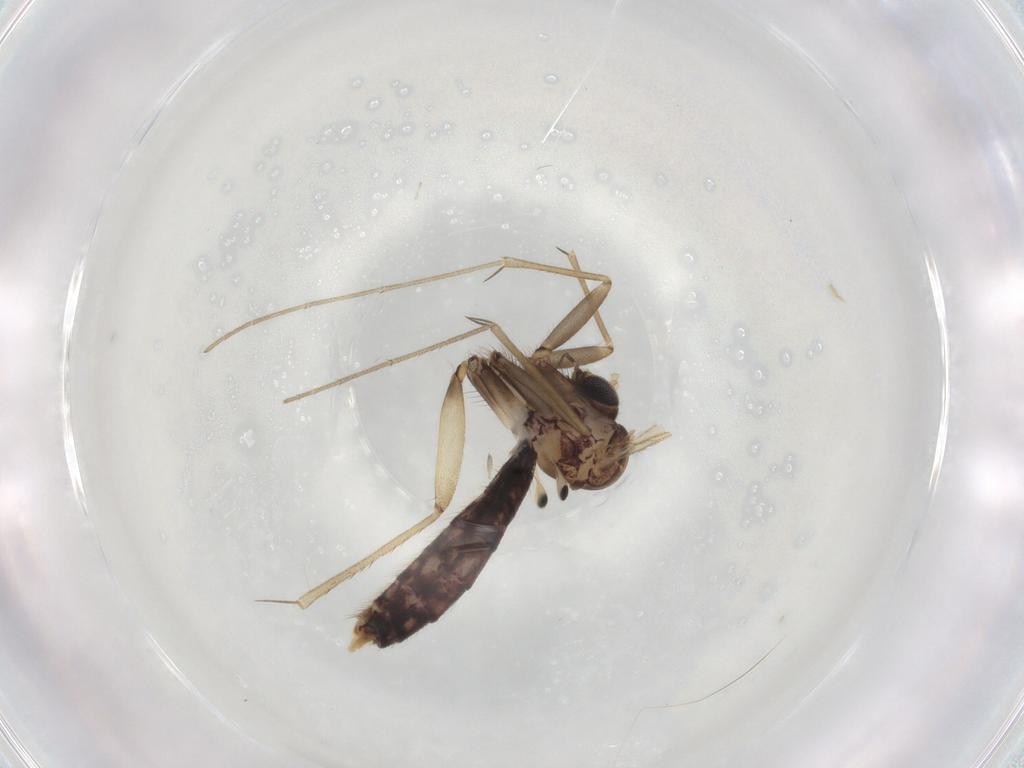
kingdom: Animalia
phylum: Arthropoda
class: Insecta
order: Diptera
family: Mycetophilidae
